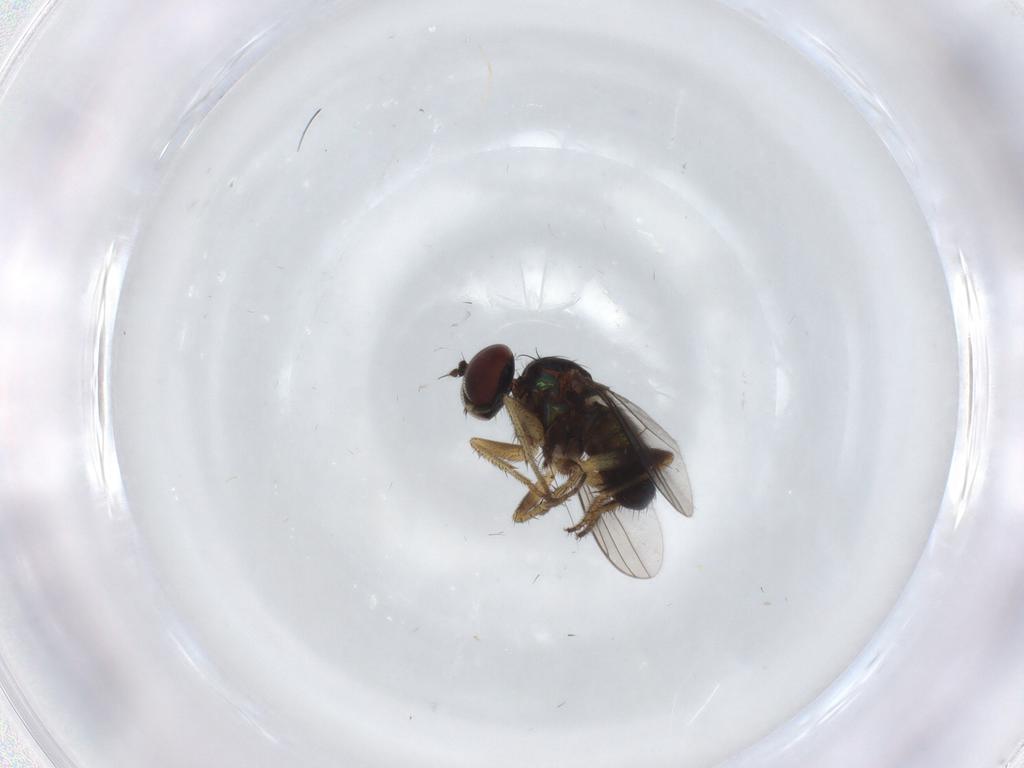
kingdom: Animalia
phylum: Arthropoda
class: Insecta
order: Diptera
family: Dolichopodidae
